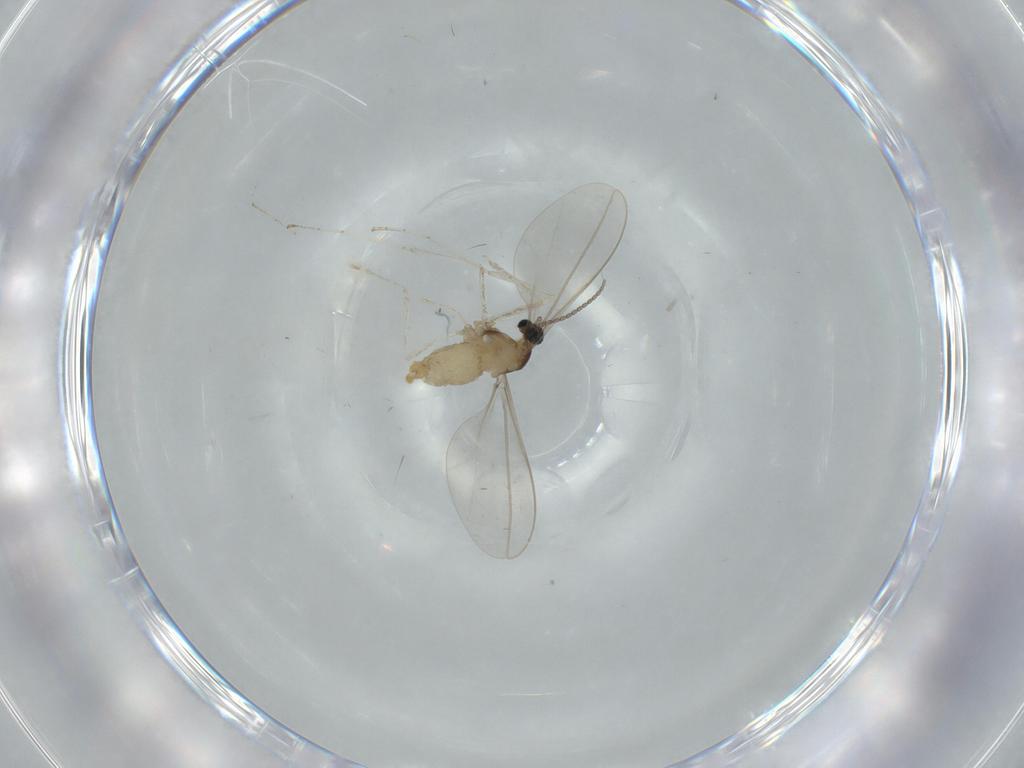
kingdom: Animalia
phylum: Arthropoda
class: Insecta
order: Diptera
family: Cecidomyiidae
